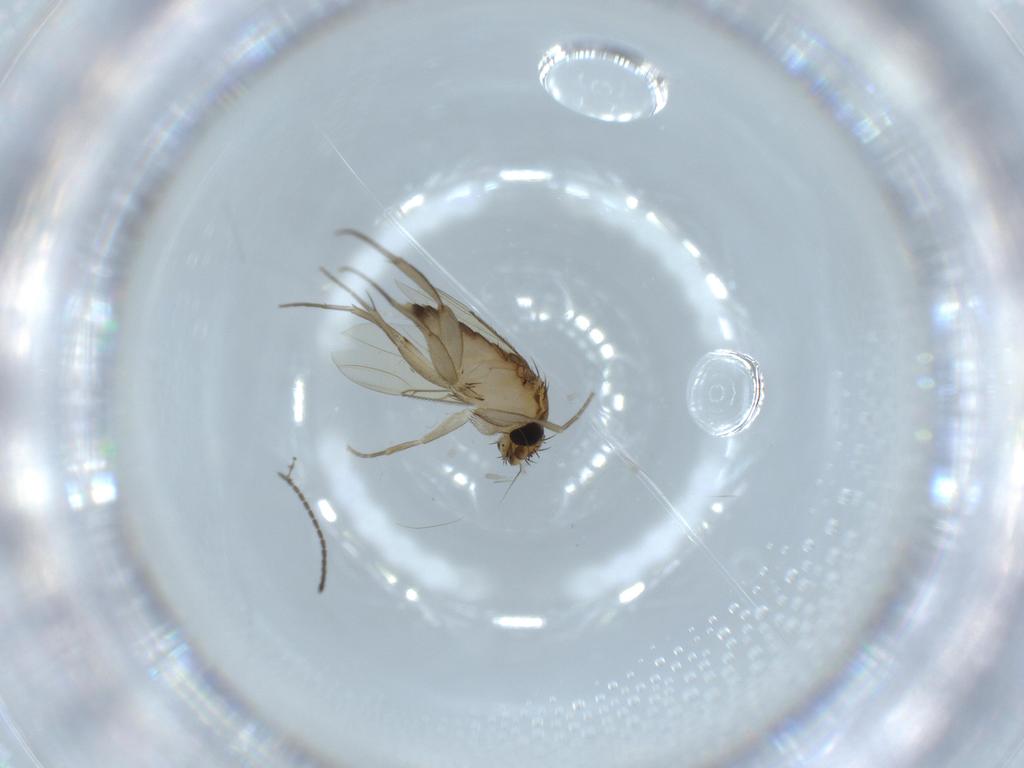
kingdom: Animalia
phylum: Arthropoda
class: Insecta
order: Diptera
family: Phoridae
